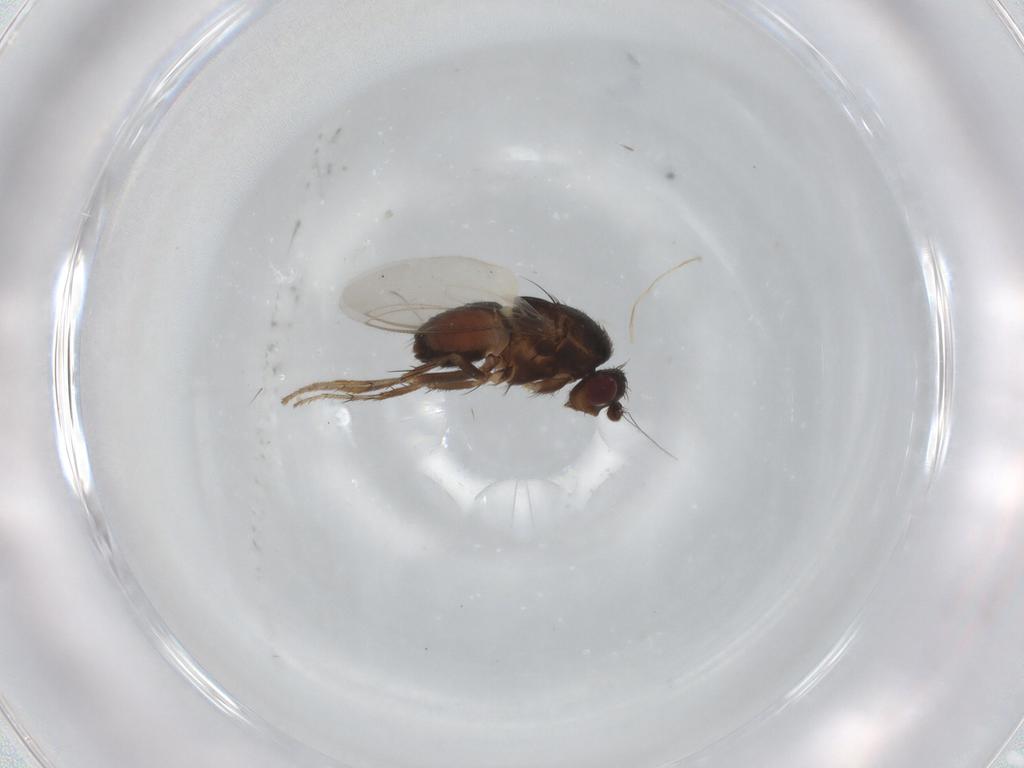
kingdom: Animalia
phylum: Arthropoda
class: Insecta
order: Diptera
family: Sphaeroceridae
